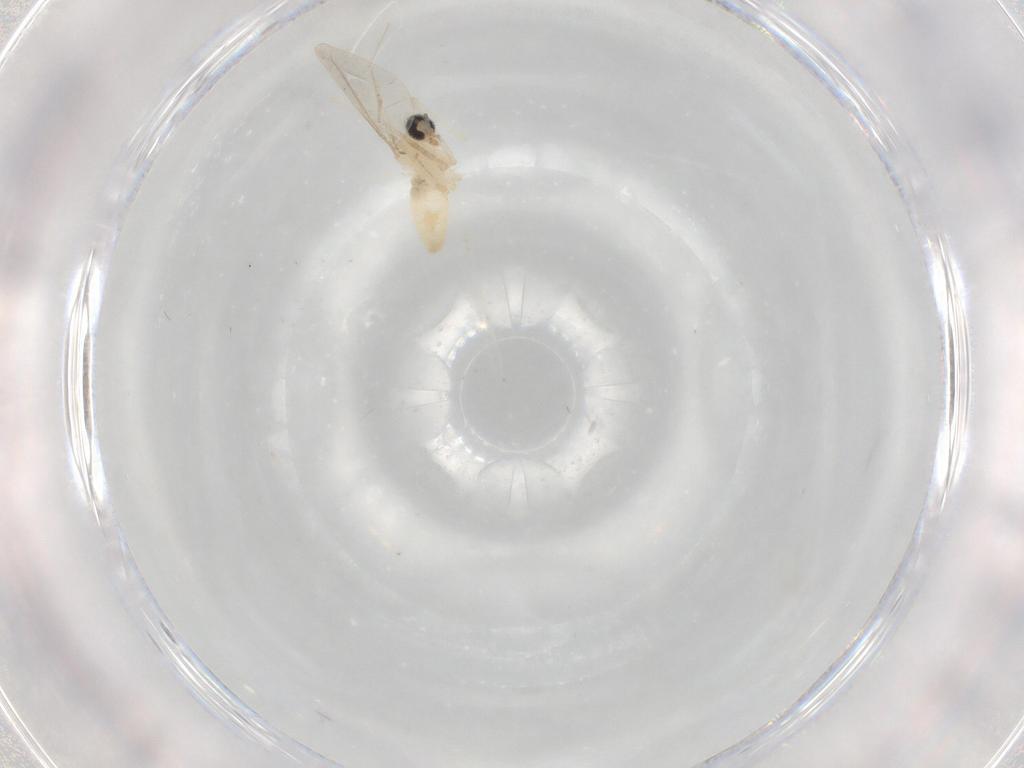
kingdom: Animalia
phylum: Arthropoda
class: Insecta
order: Diptera
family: Cecidomyiidae
